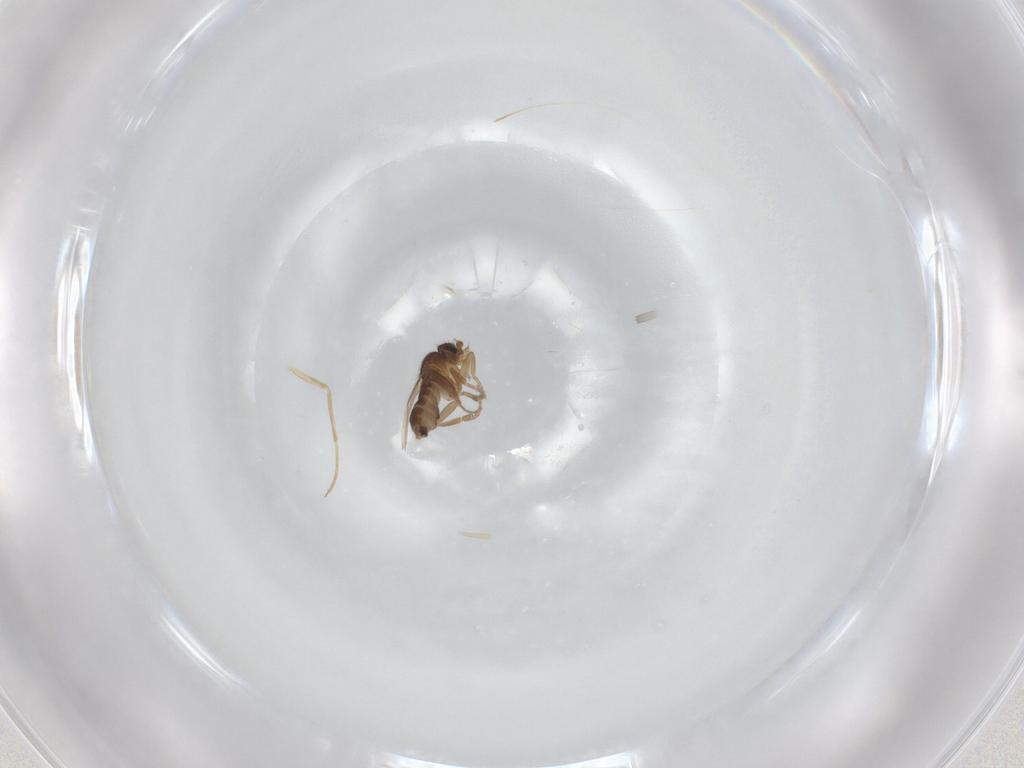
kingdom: Animalia
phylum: Arthropoda
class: Insecta
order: Diptera
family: Phoridae
